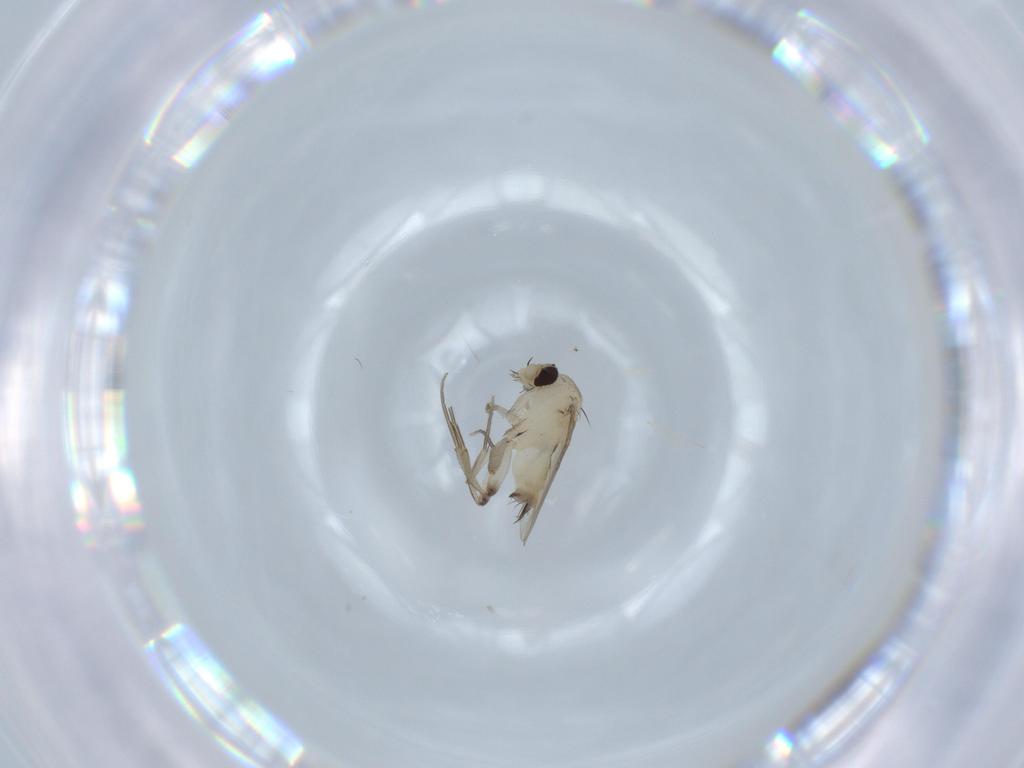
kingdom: Animalia
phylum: Arthropoda
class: Insecta
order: Diptera
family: Phoridae
